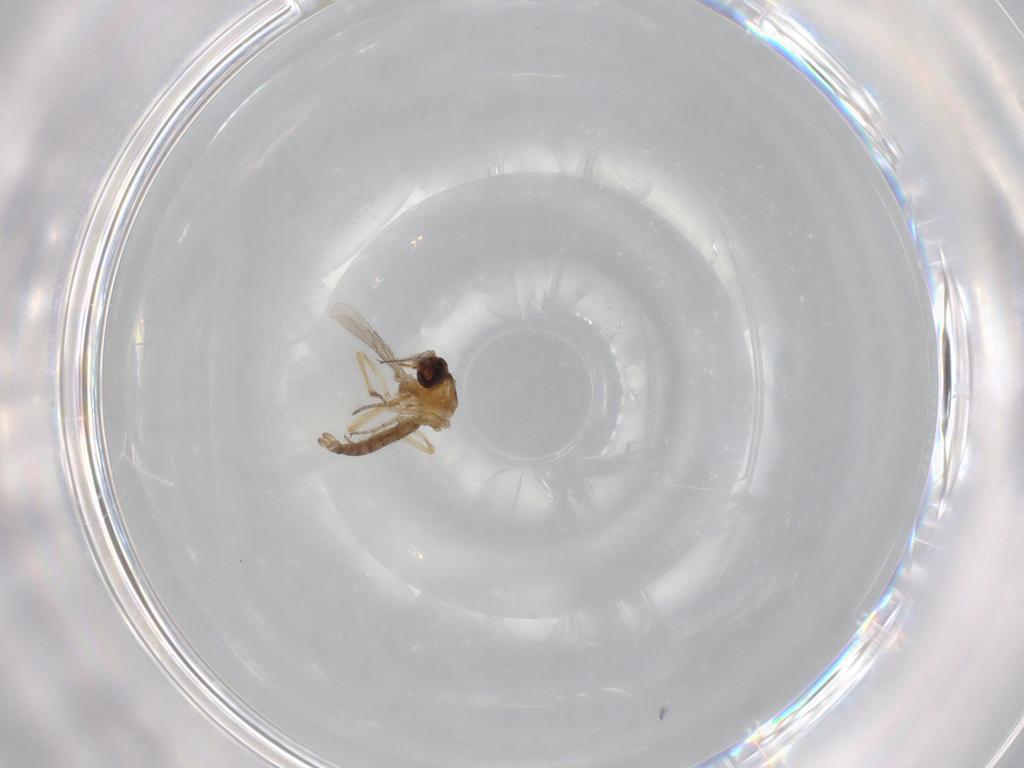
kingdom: Animalia
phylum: Arthropoda
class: Insecta
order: Diptera
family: Ceratopogonidae
